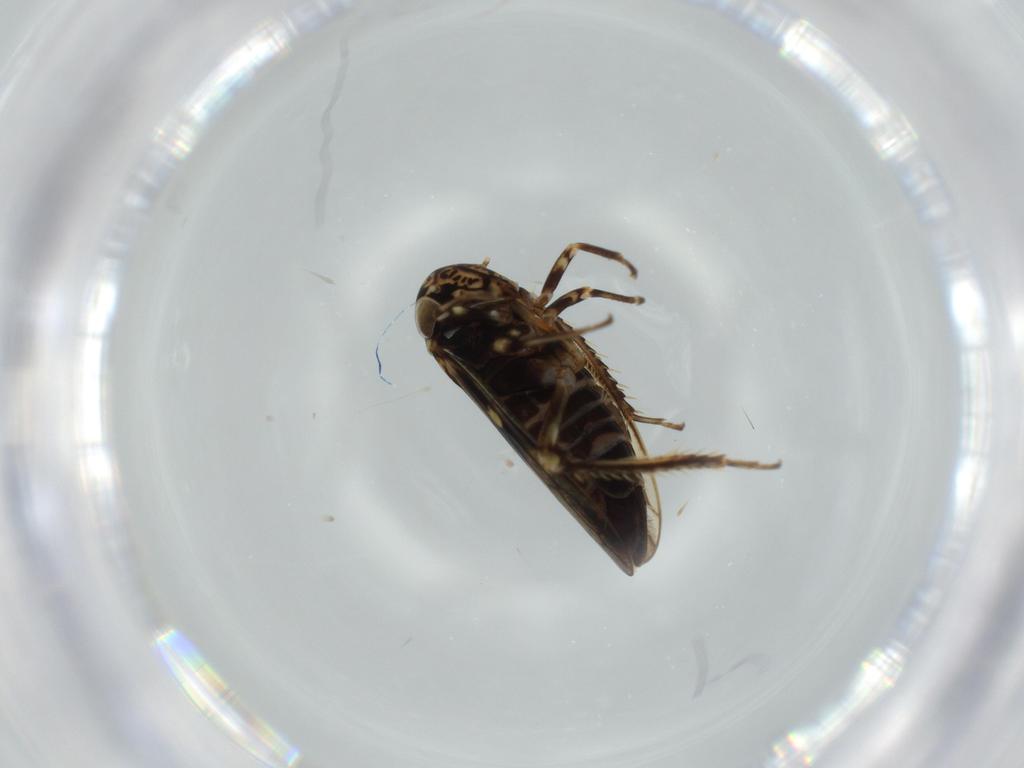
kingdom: Animalia
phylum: Arthropoda
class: Insecta
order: Hemiptera
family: Cicadellidae
